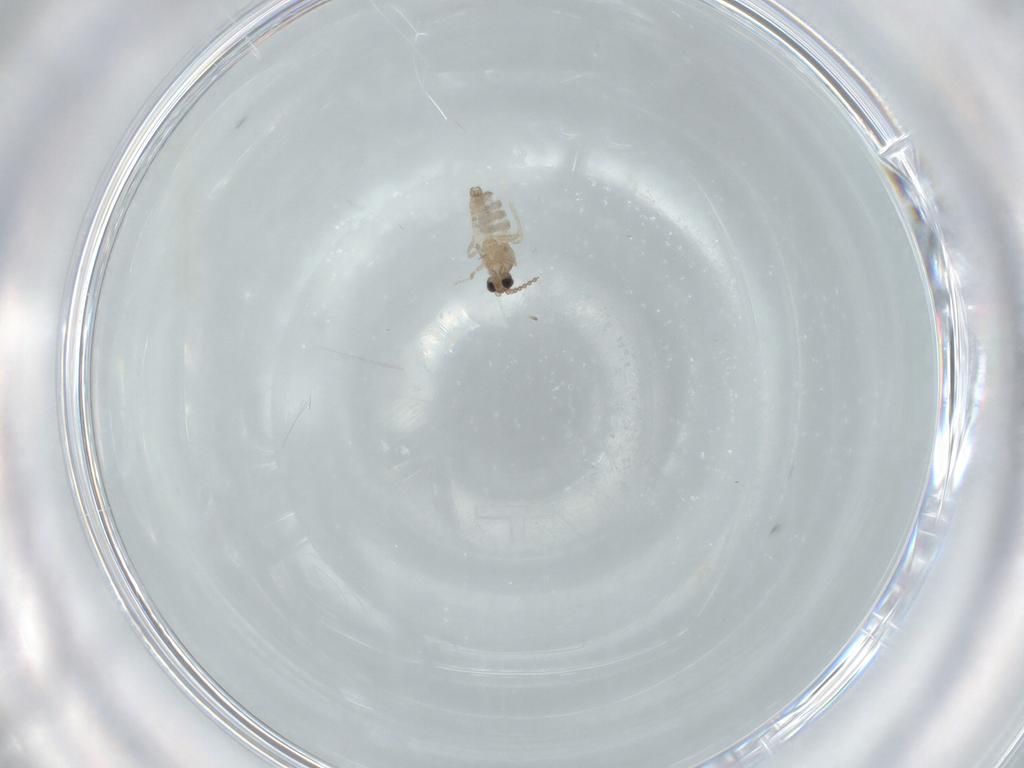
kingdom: Animalia
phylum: Arthropoda
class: Insecta
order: Diptera
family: Cecidomyiidae
